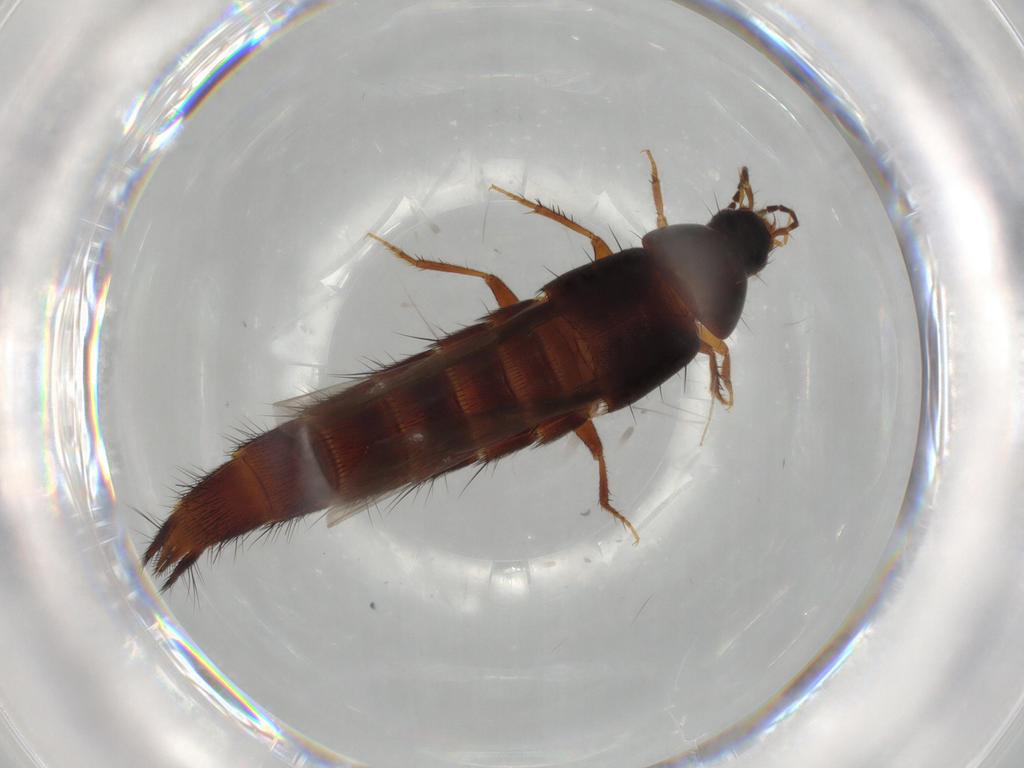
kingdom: Animalia
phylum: Arthropoda
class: Insecta
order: Coleoptera
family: Staphylinidae
